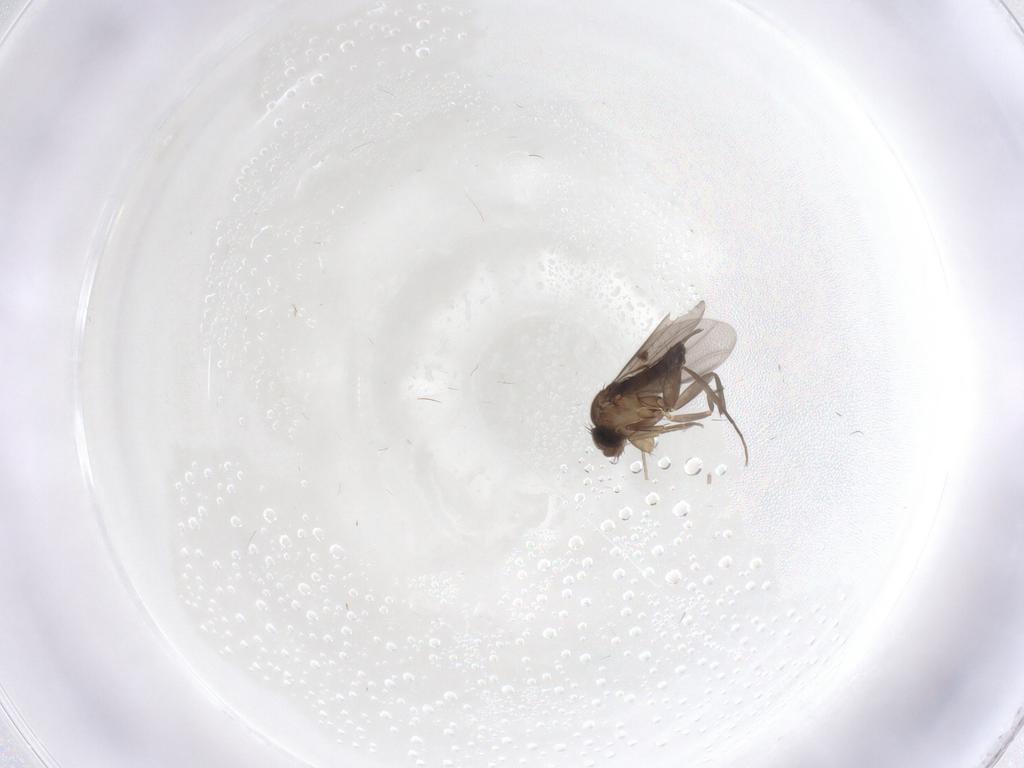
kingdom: Animalia
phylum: Arthropoda
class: Insecta
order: Diptera
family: Phoridae
